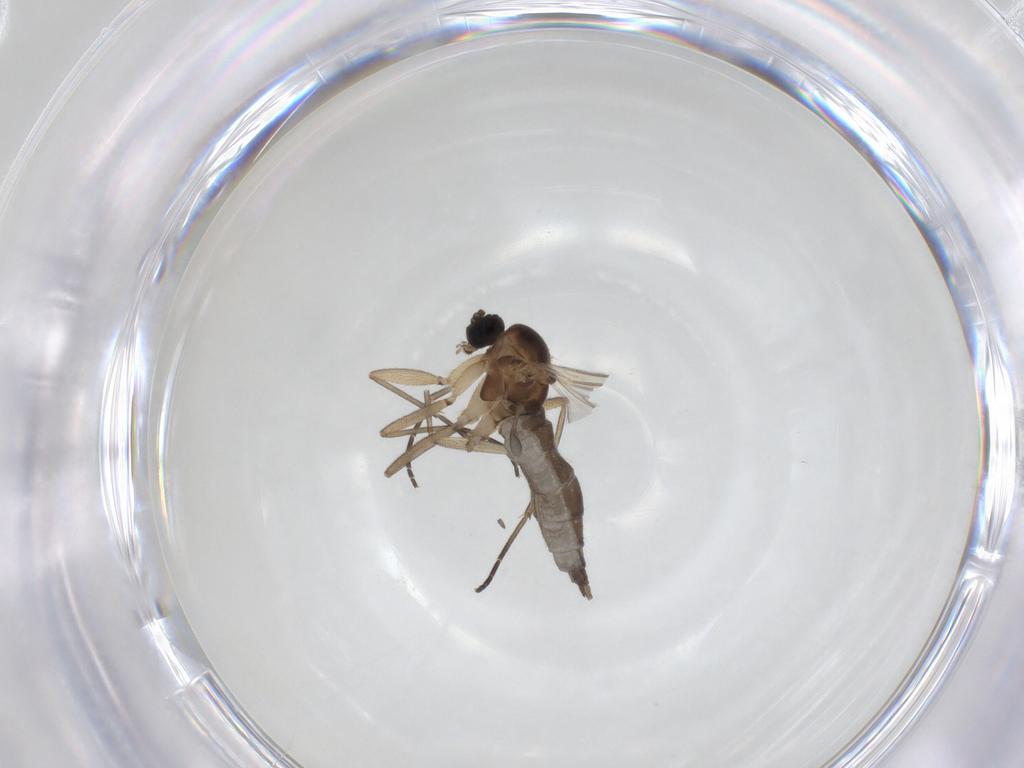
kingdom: Animalia
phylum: Arthropoda
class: Insecta
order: Diptera
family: Sciaridae
